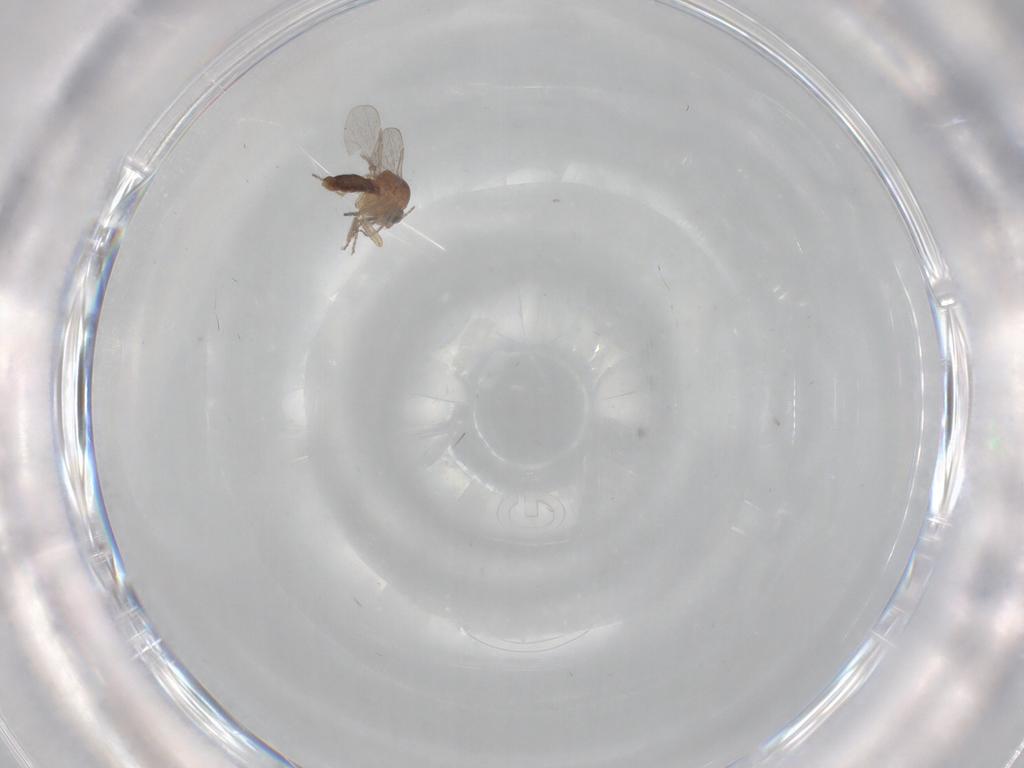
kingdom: Animalia
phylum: Arthropoda
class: Insecta
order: Diptera
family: Ceratopogonidae
